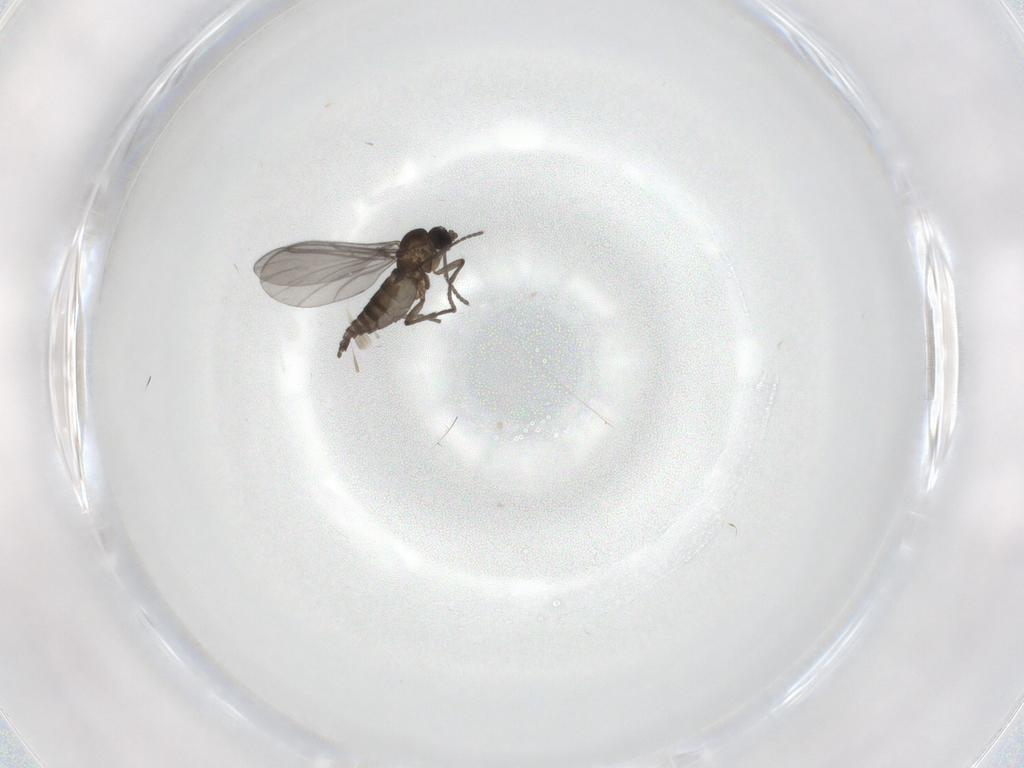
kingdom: Animalia
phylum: Arthropoda
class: Insecta
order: Diptera
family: Sciaridae
